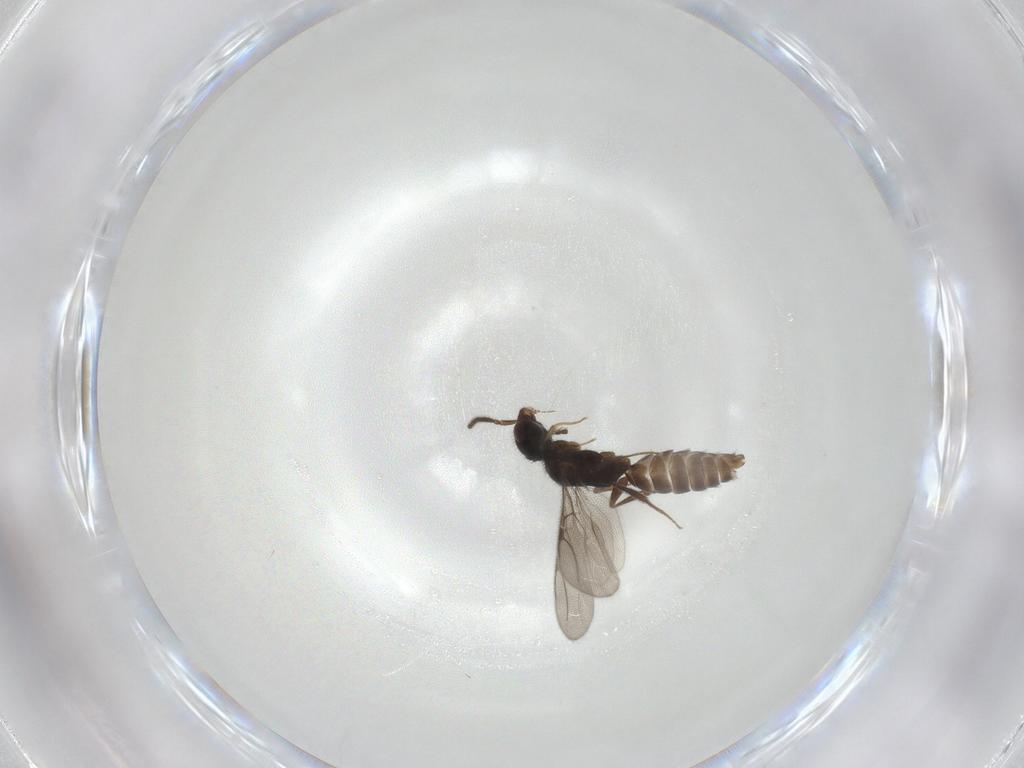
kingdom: Animalia
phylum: Arthropoda
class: Insecta
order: Hymenoptera
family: Bethylidae
